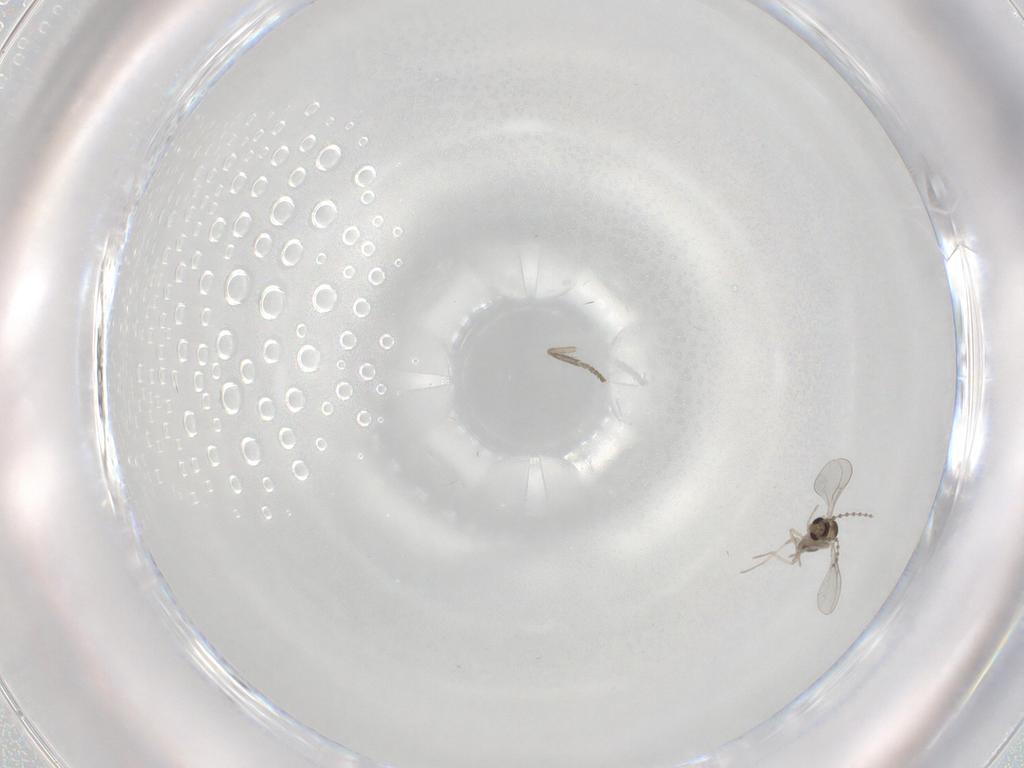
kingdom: Animalia
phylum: Arthropoda
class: Insecta
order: Diptera
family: Cecidomyiidae
